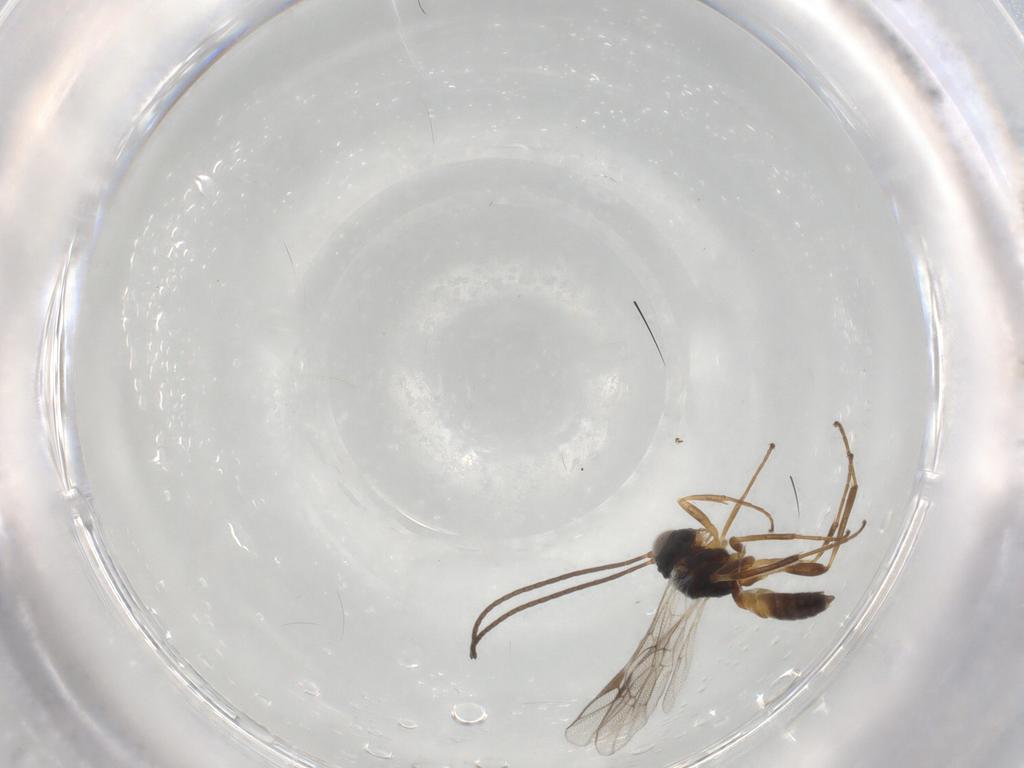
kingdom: Animalia
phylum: Arthropoda
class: Insecta
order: Hymenoptera
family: Ichneumonidae
